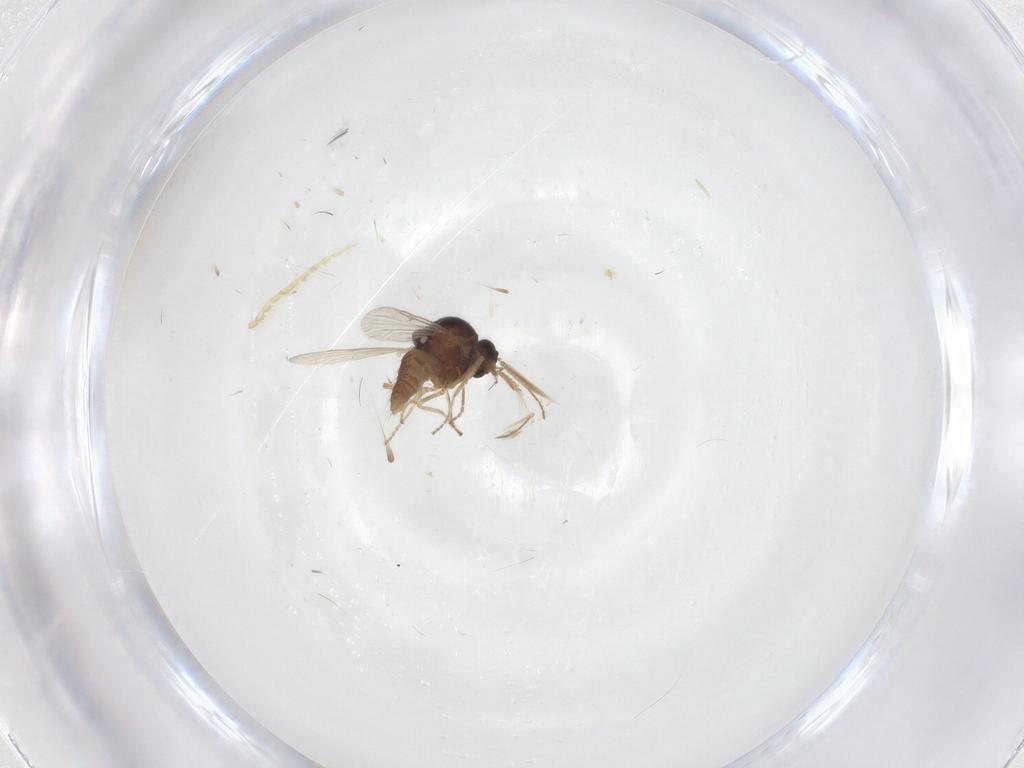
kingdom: Animalia
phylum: Arthropoda
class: Insecta
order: Diptera
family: Ceratopogonidae
